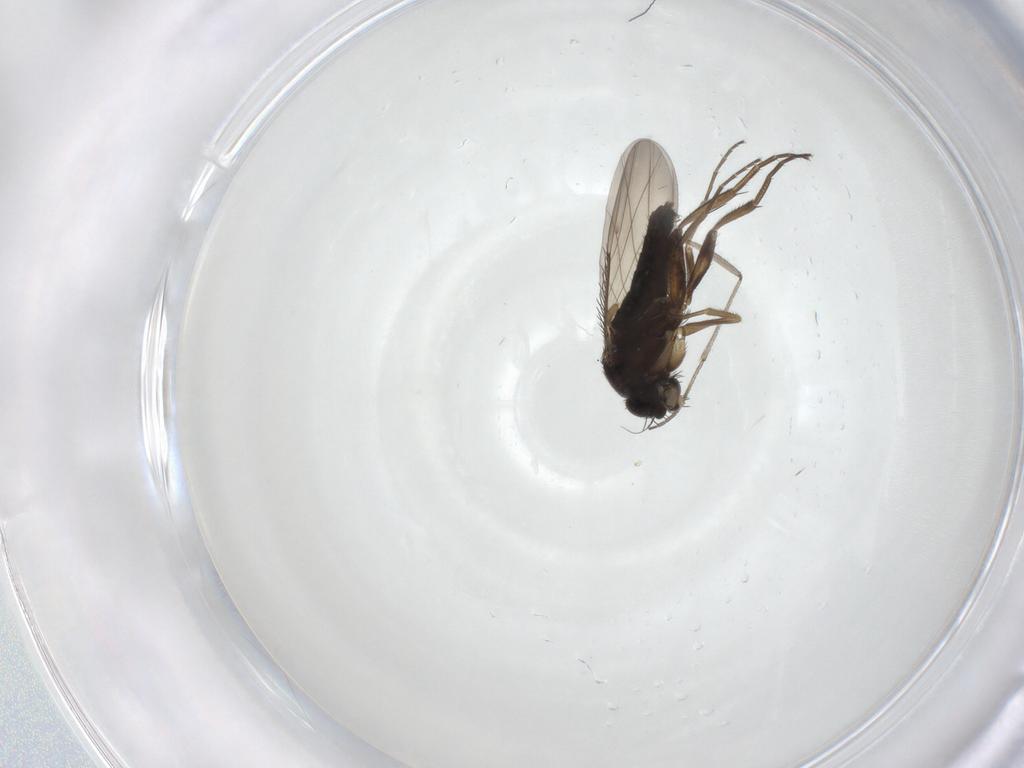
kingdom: Animalia
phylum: Arthropoda
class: Insecta
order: Diptera
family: Phoridae
